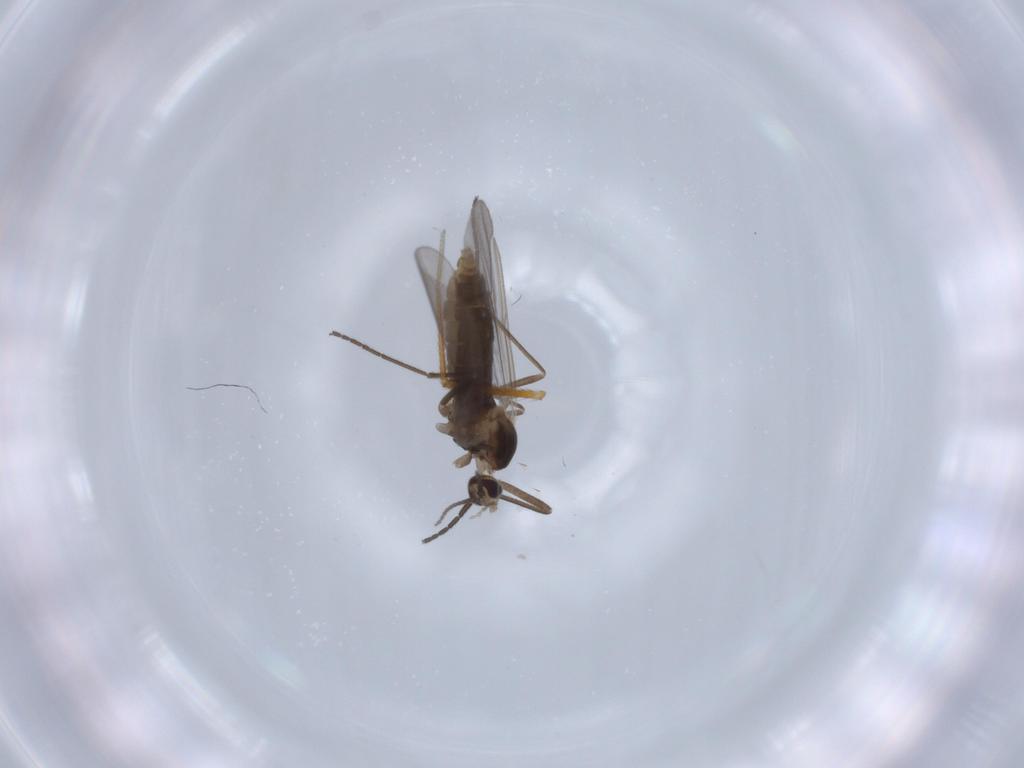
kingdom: Animalia
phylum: Arthropoda
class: Insecta
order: Diptera
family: Cecidomyiidae
